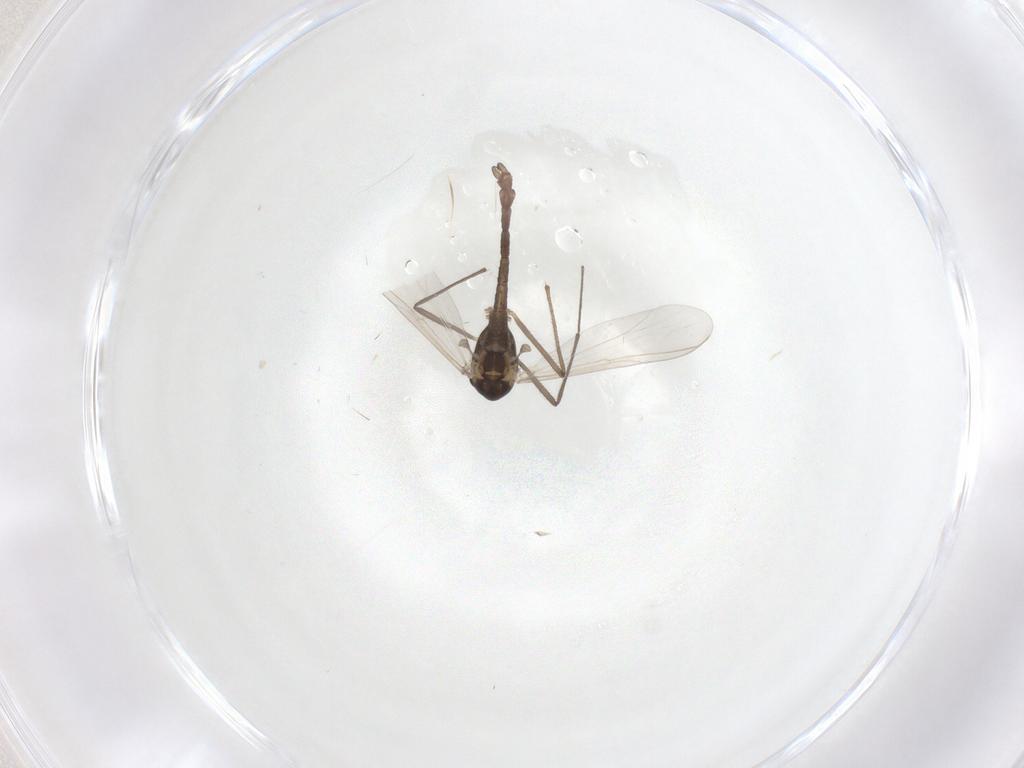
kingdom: Animalia
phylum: Arthropoda
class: Insecta
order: Diptera
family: Chironomidae
